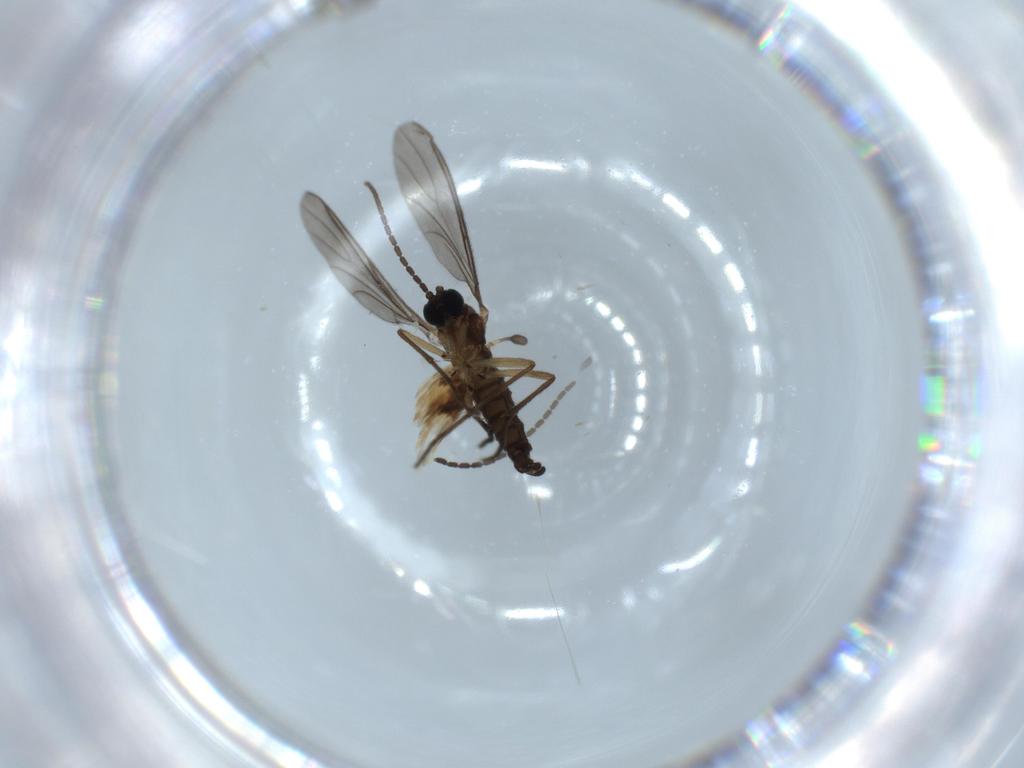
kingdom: Animalia
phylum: Arthropoda
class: Insecta
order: Diptera
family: Sciaridae
